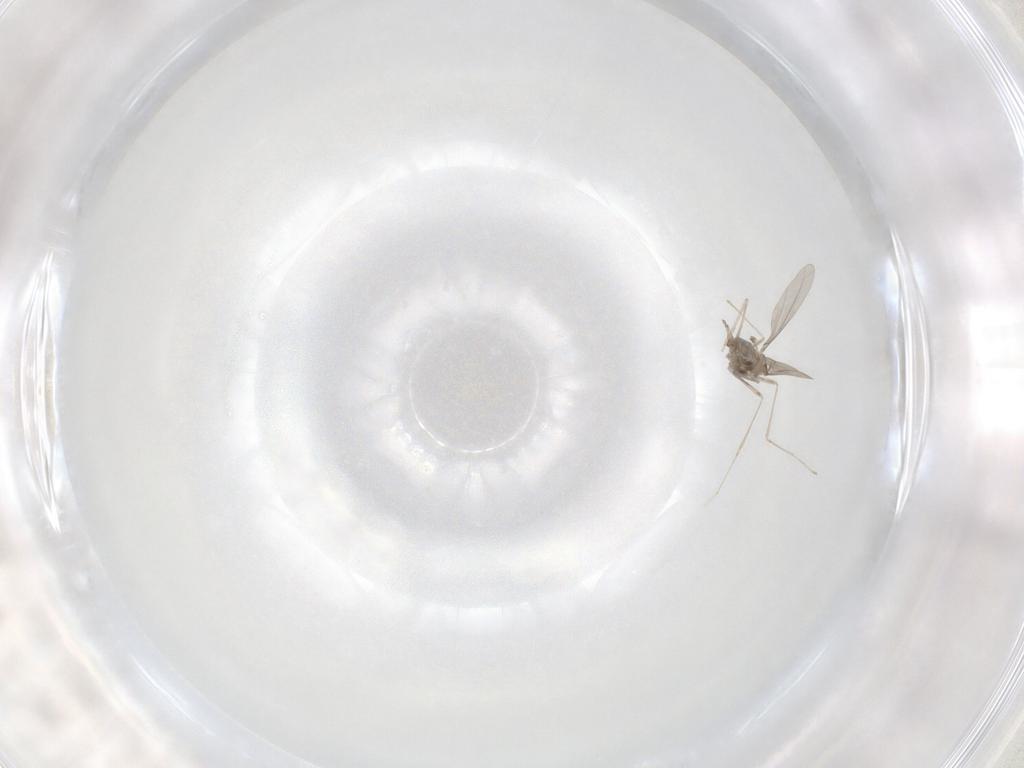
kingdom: Animalia
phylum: Arthropoda
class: Insecta
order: Diptera
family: Cecidomyiidae
